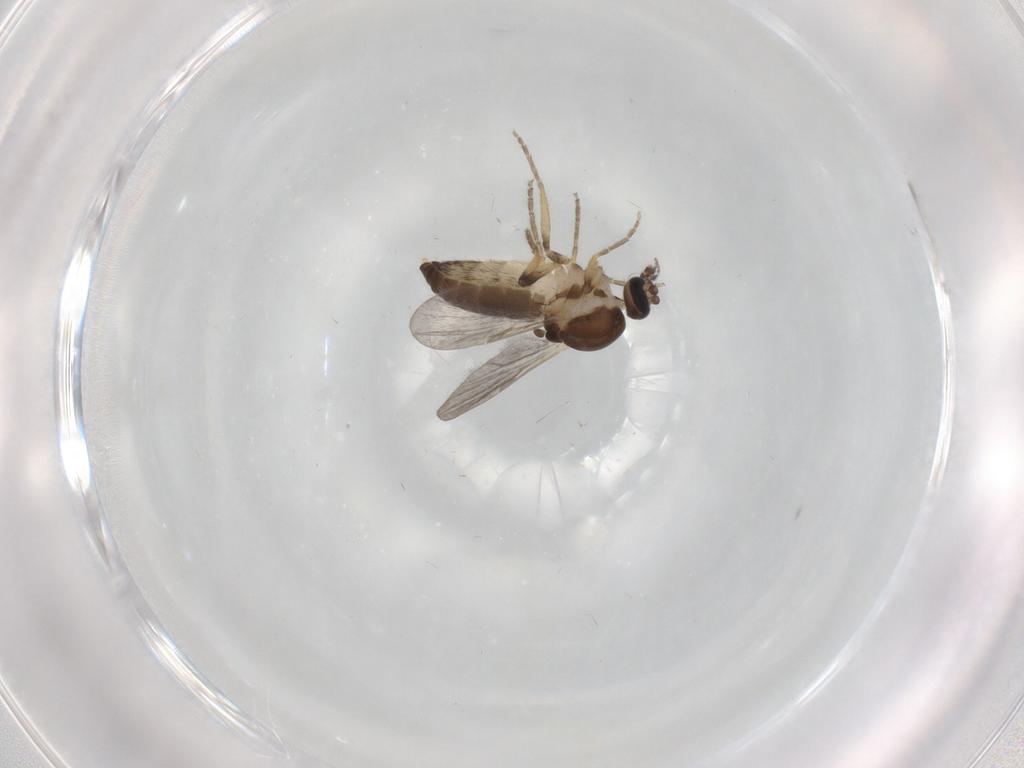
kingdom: Animalia
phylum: Arthropoda
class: Insecta
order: Diptera
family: Ceratopogonidae
